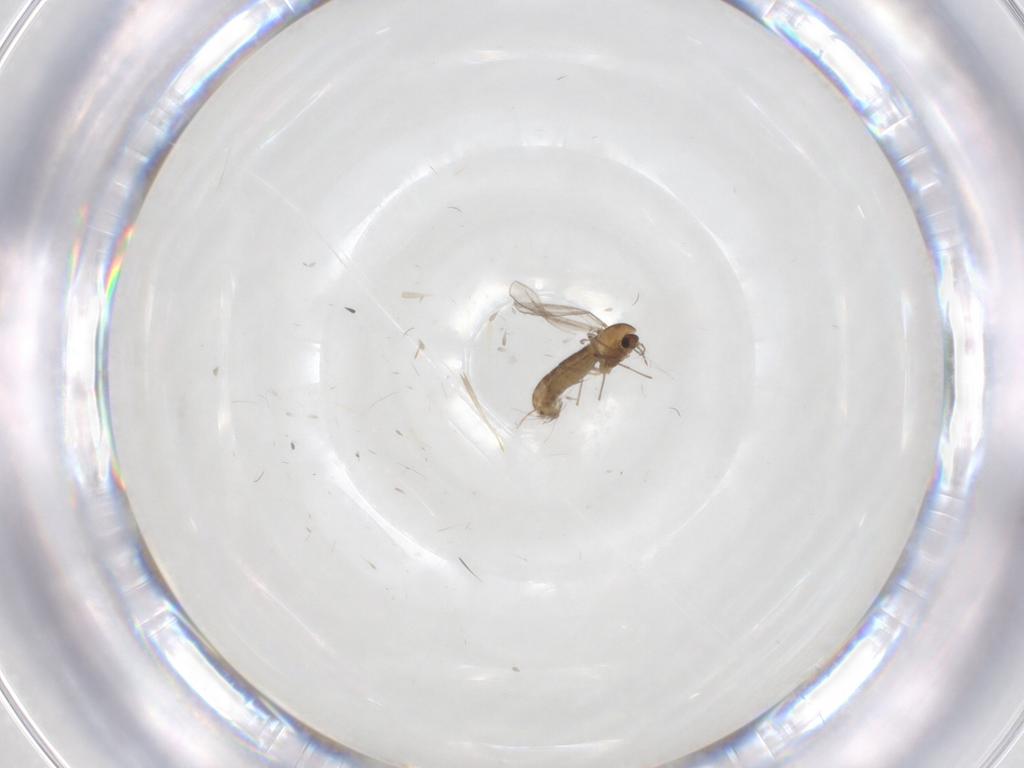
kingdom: Animalia
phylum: Arthropoda
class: Insecta
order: Diptera
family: Chironomidae
